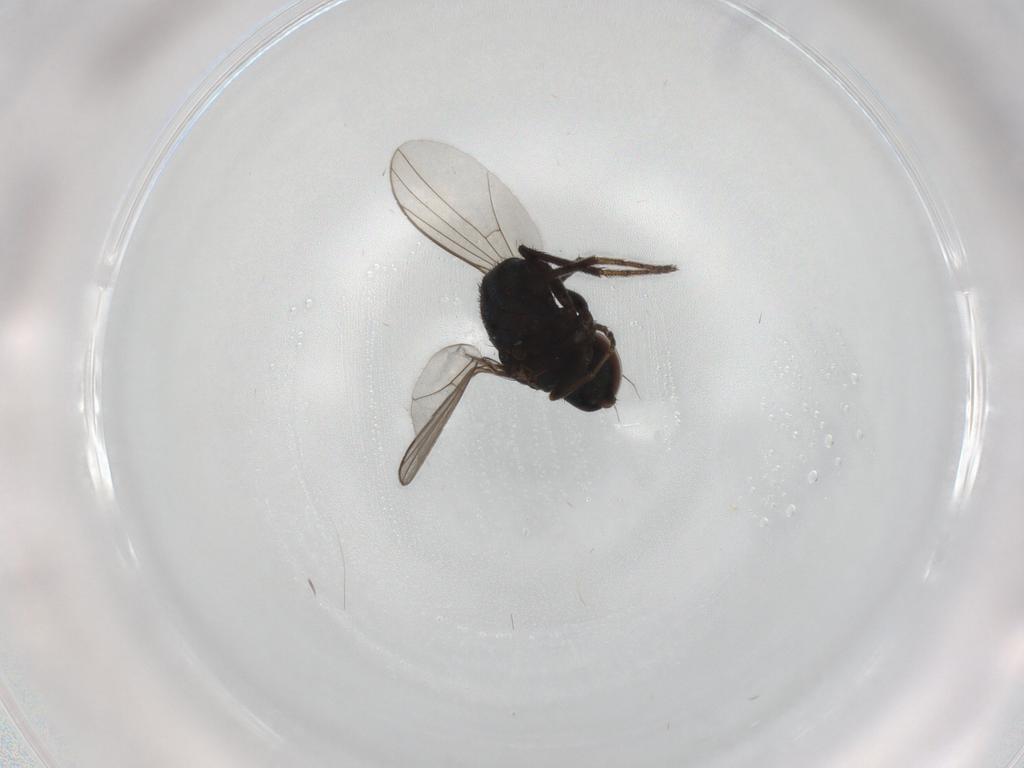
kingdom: Animalia
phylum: Arthropoda
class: Insecta
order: Diptera
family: Dolichopodidae
